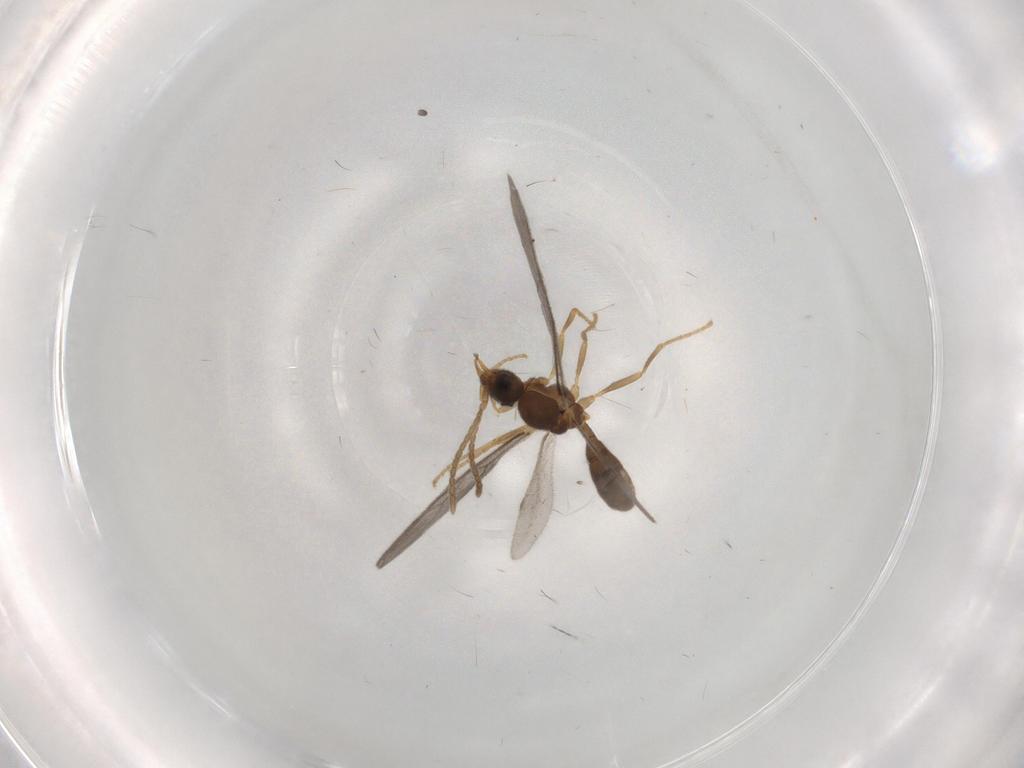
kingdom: Animalia
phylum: Arthropoda
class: Insecta
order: Hymenoptera
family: Formicidae
